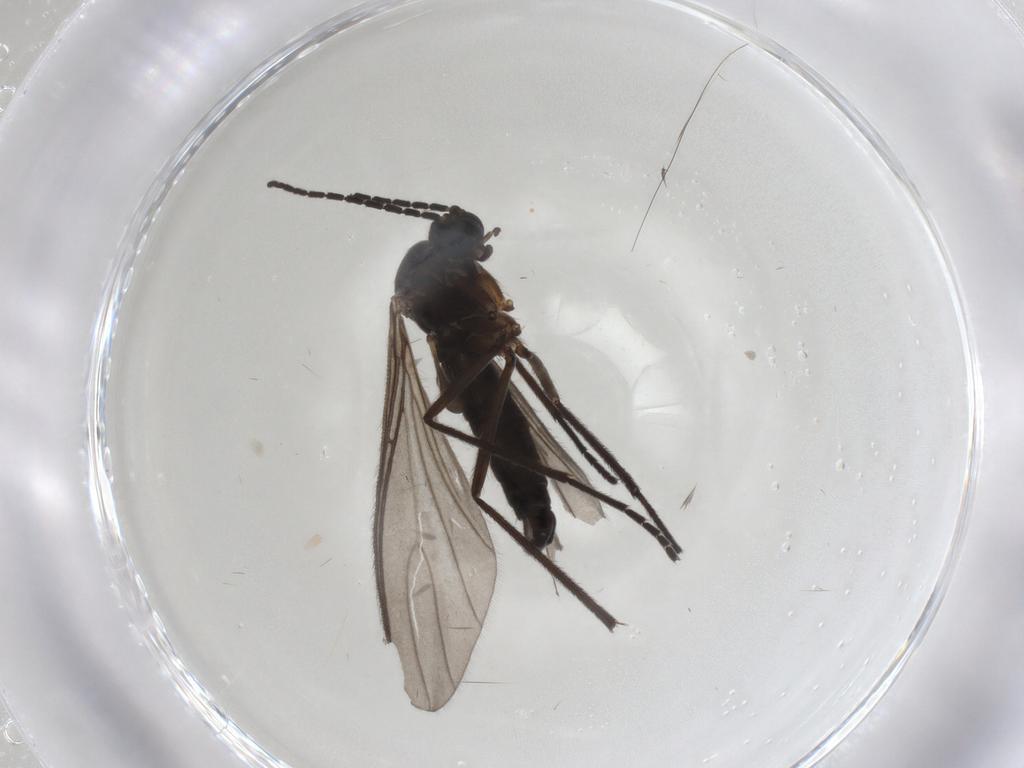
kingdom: Animalia
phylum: Arthropoda
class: Insecta
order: Diptera
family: Sciaridae
